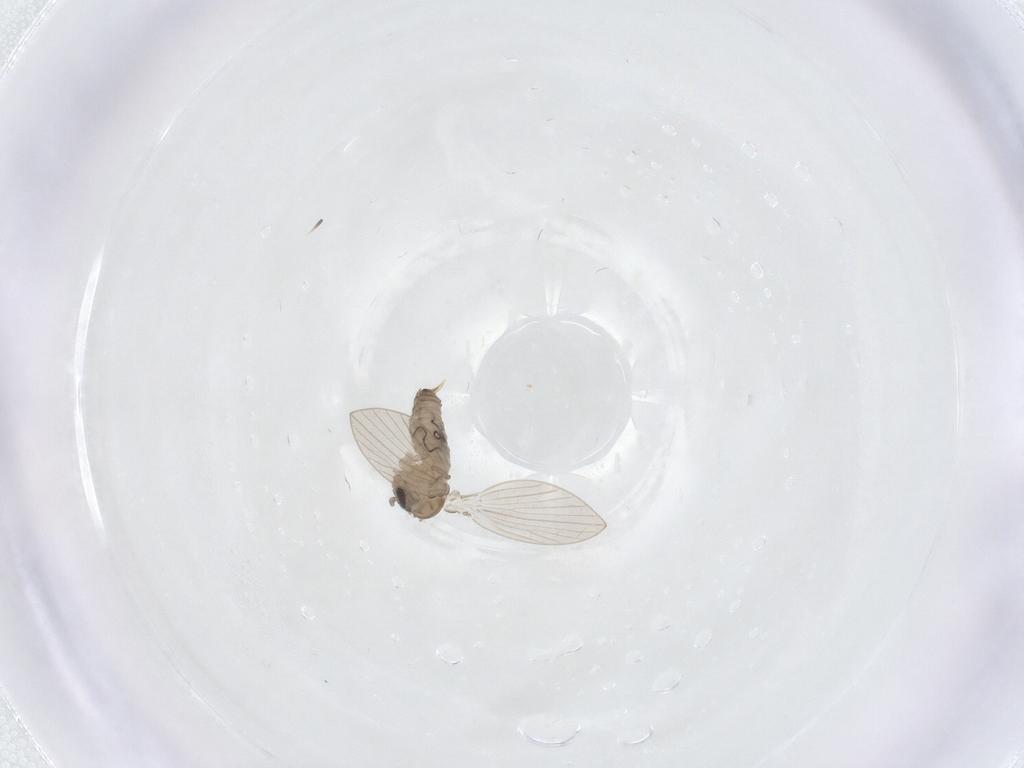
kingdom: Animalia
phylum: Arthropoda
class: Insecta
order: Diptera
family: Psychodidae
